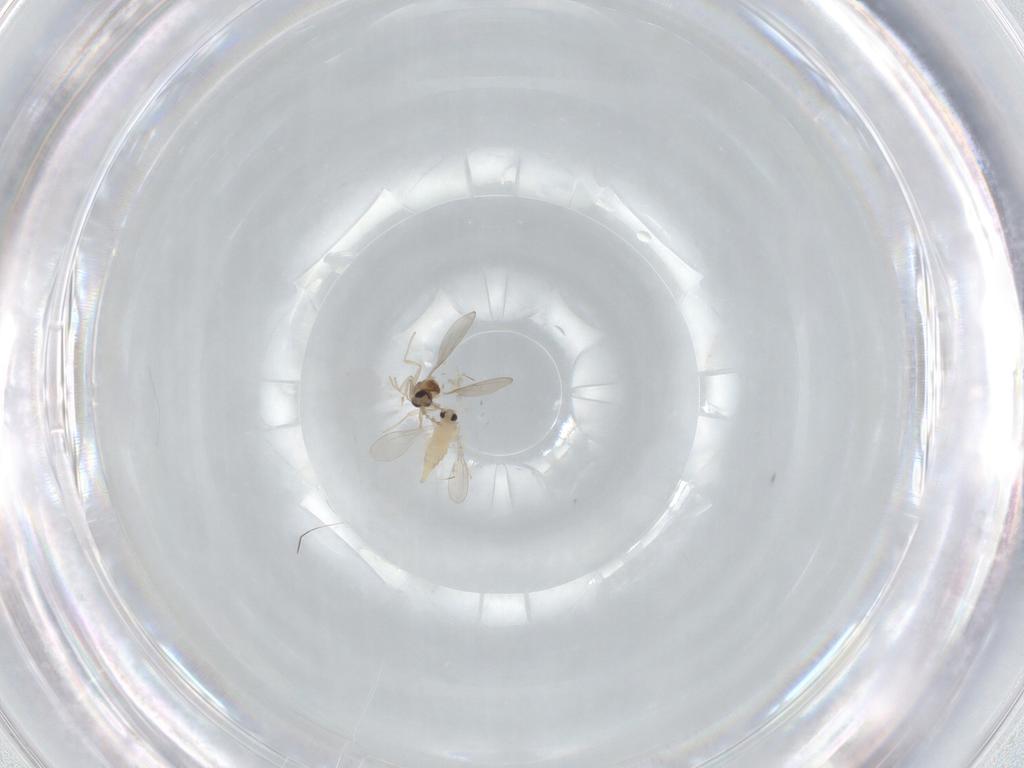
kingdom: Animalia
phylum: Arthropoda
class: Insecta
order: Diptera
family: Cecidomyiidae
